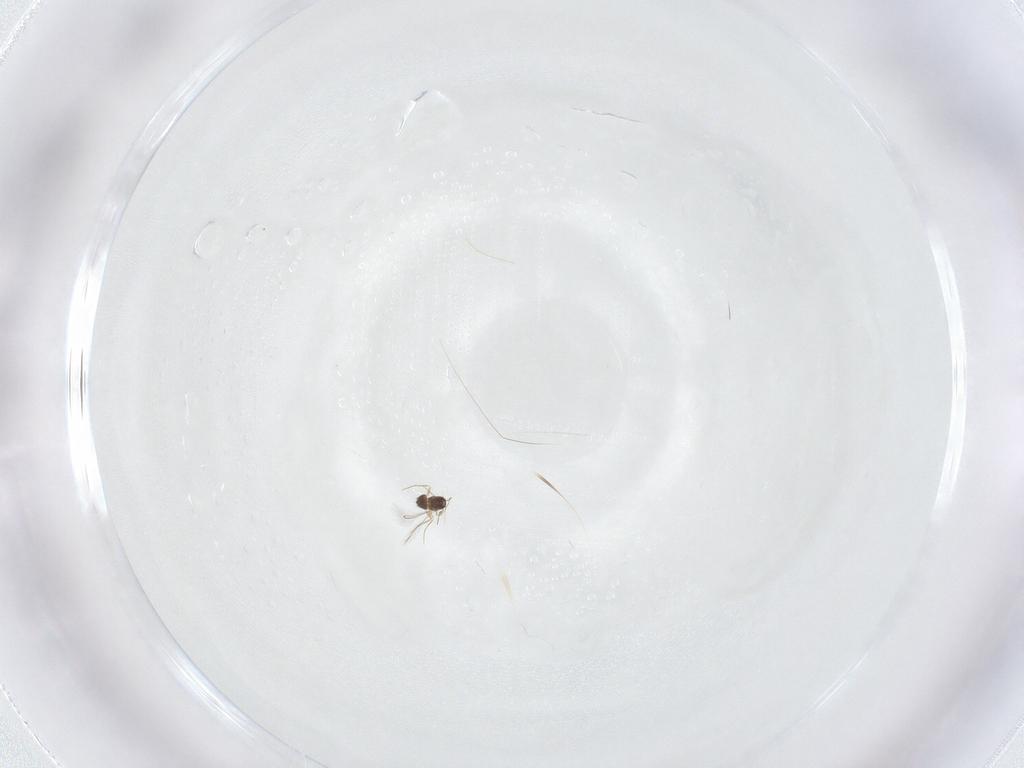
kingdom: Animalia
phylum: Arthropoda
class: Insecta
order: Hymenoptera
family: Mymaridae
